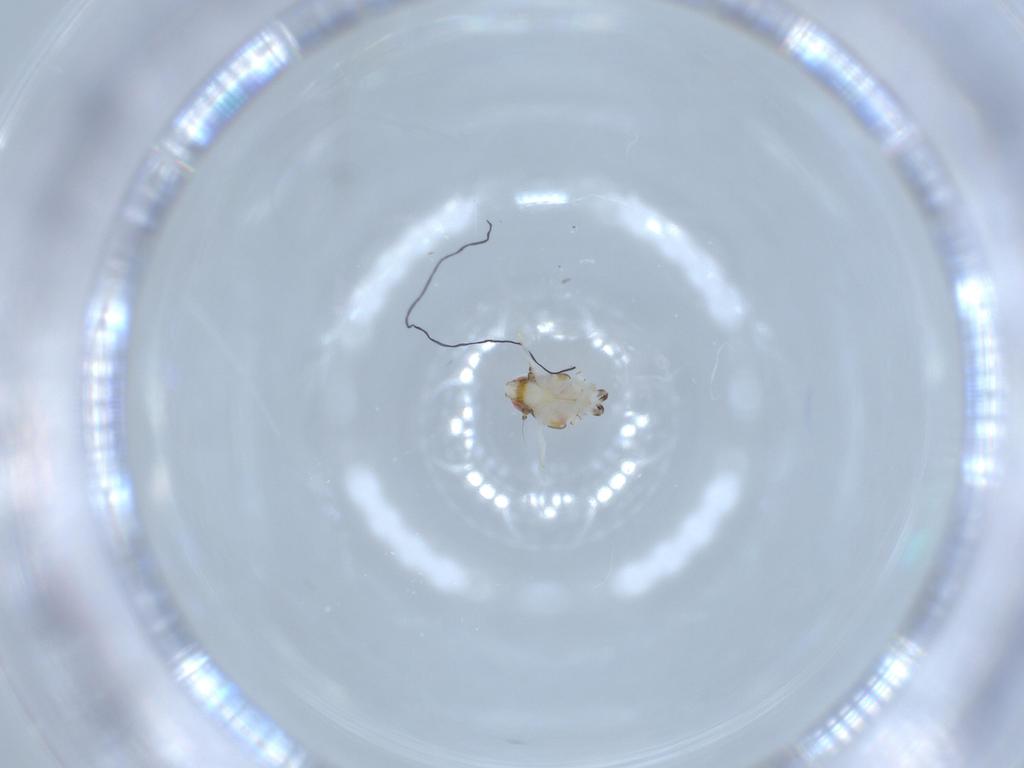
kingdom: Animalia
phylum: Arthropoda
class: Insecta
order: Hemiptera
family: Nogodinidae
